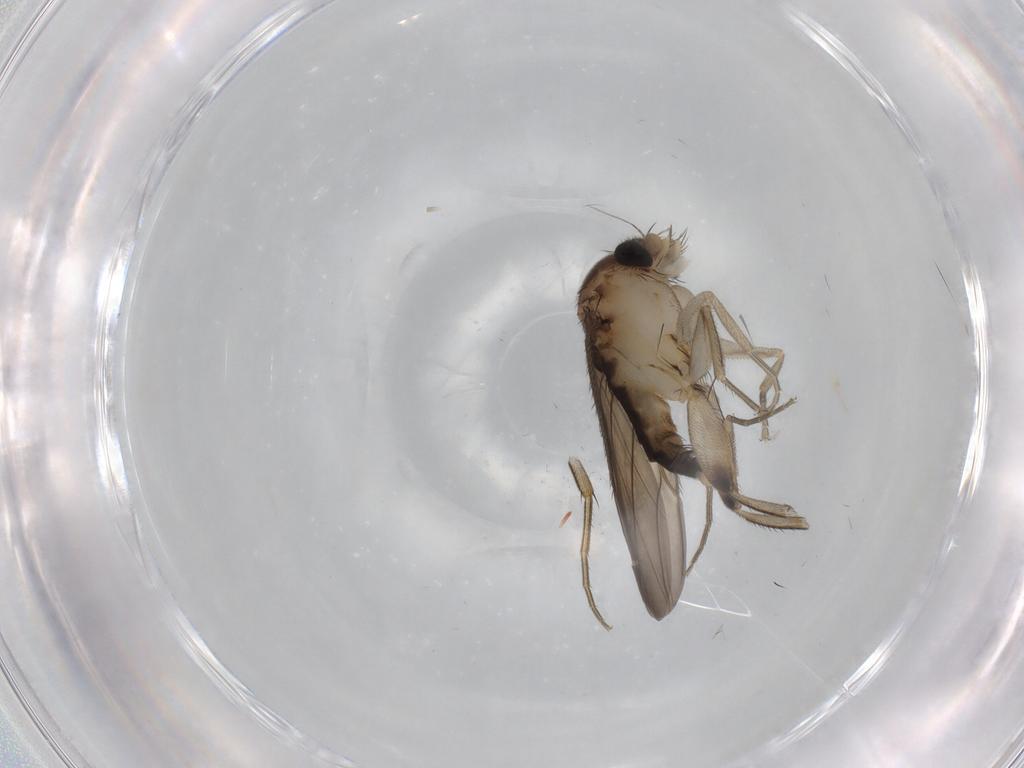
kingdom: Animalia
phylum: Arthropoda
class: Insecta
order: Diptera
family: Phoridae
